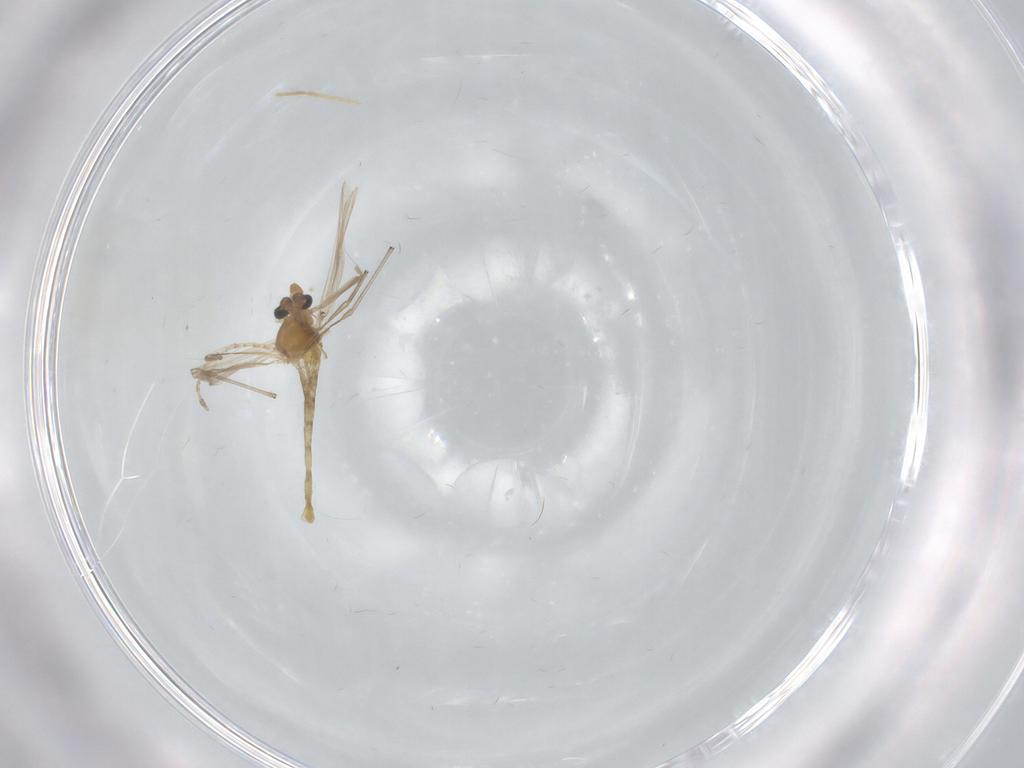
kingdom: Animalia
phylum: Arthropoda
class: Insecta
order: Diptera
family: Chironomidae
